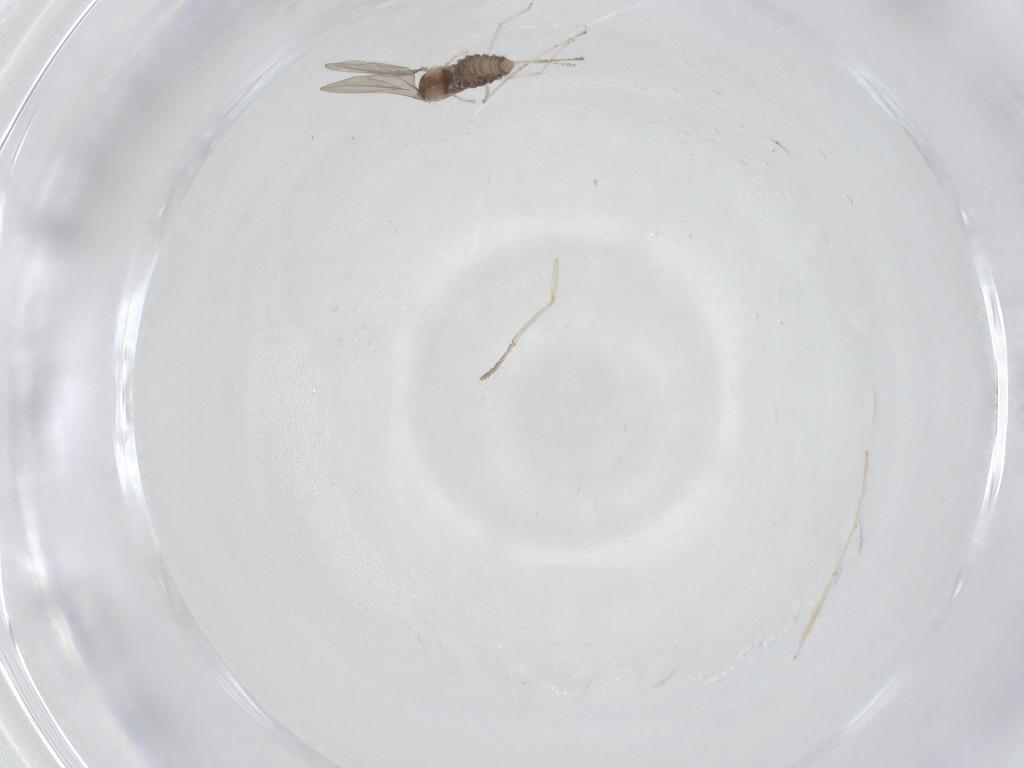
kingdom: Animalia
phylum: Arthropoda
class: Insecta
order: Diptera
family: Chironomidae
